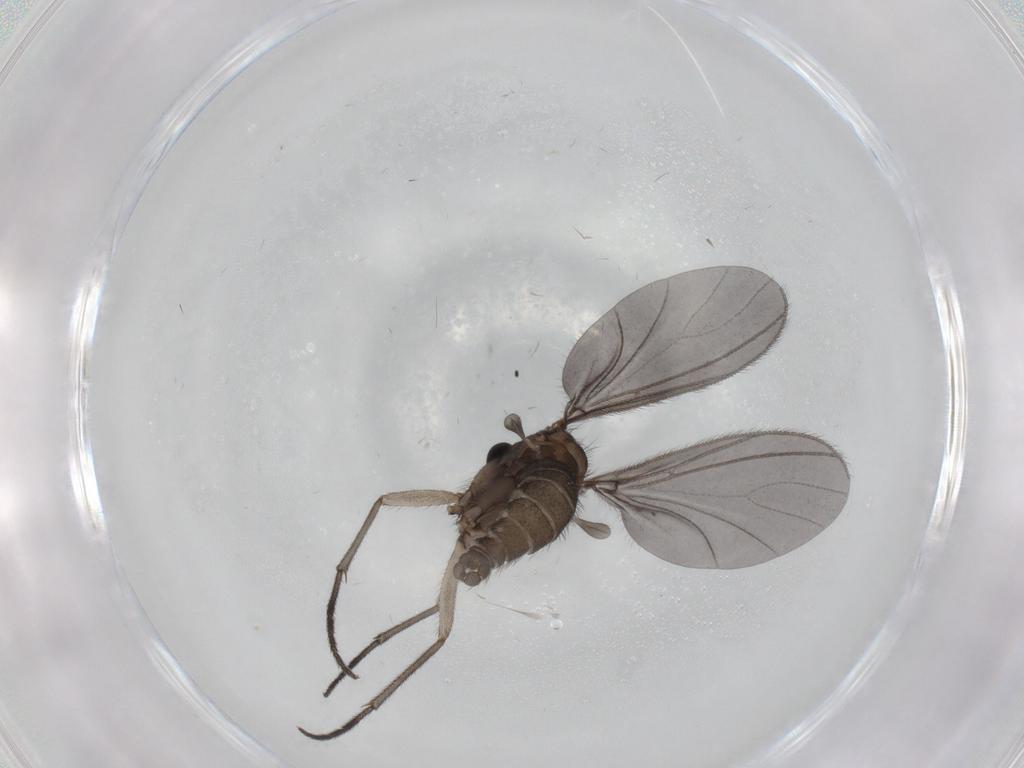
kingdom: Animalia
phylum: Arthropoda
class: Insecta
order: Diptera
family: Sciaridae
